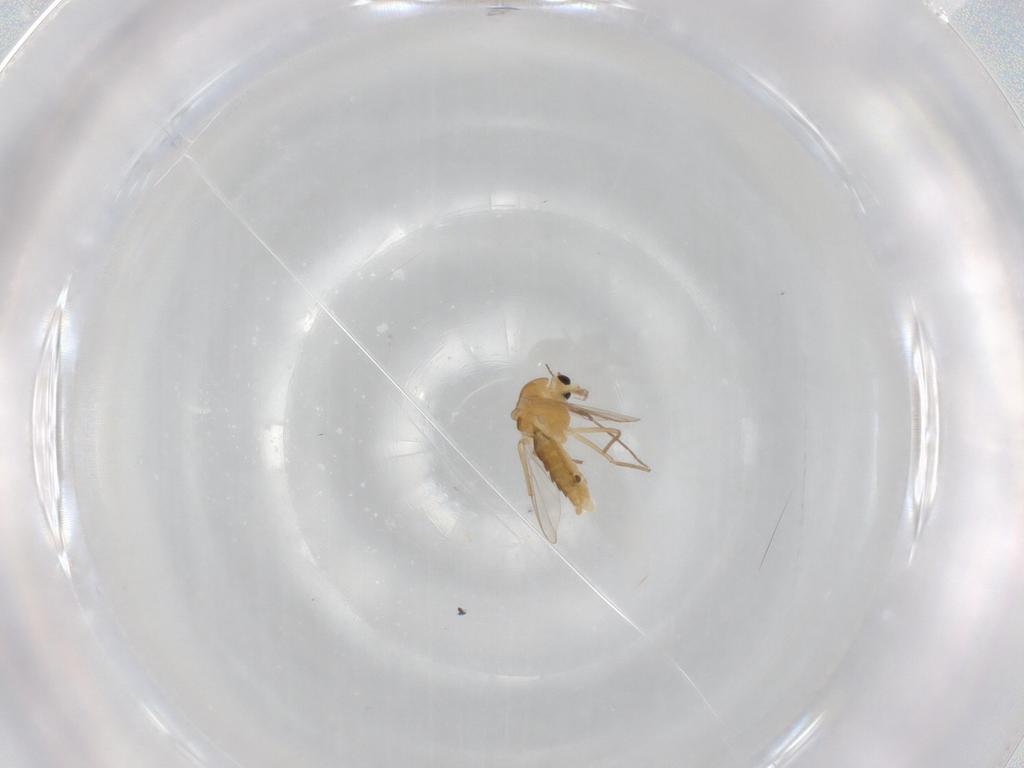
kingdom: Animalia
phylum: Arthropoda
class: Insecta
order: Diptera
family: Chironomidae
